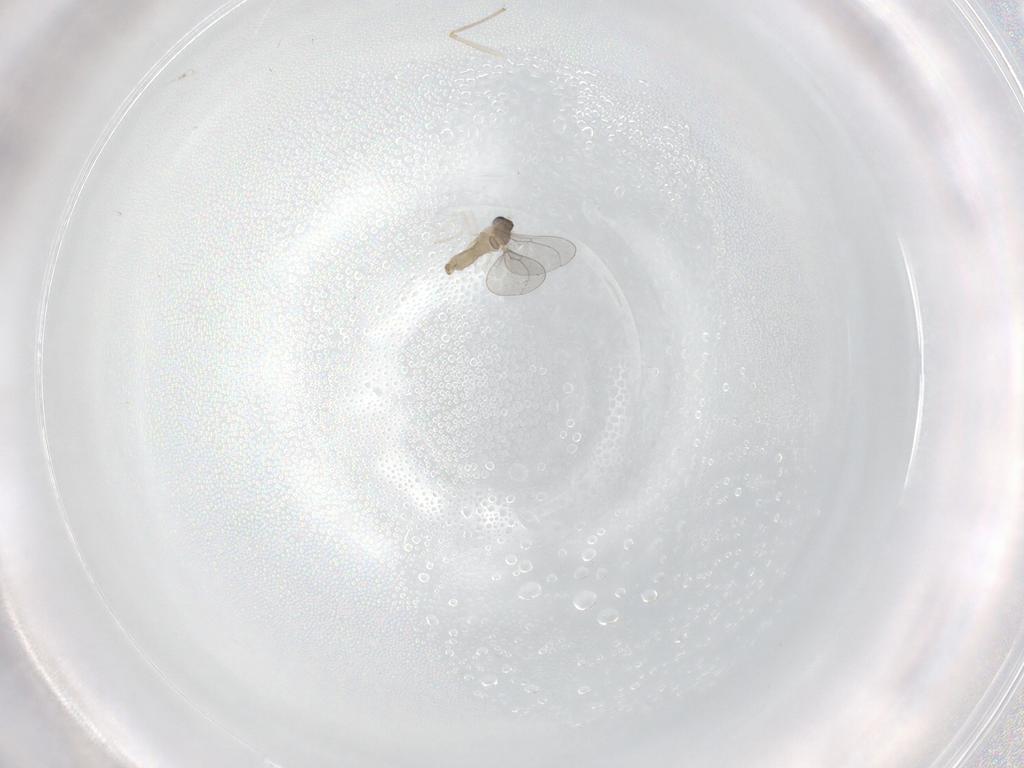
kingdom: Animalia
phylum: Arthropoda
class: Insecta
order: Diptera
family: Cecidomyiidae
